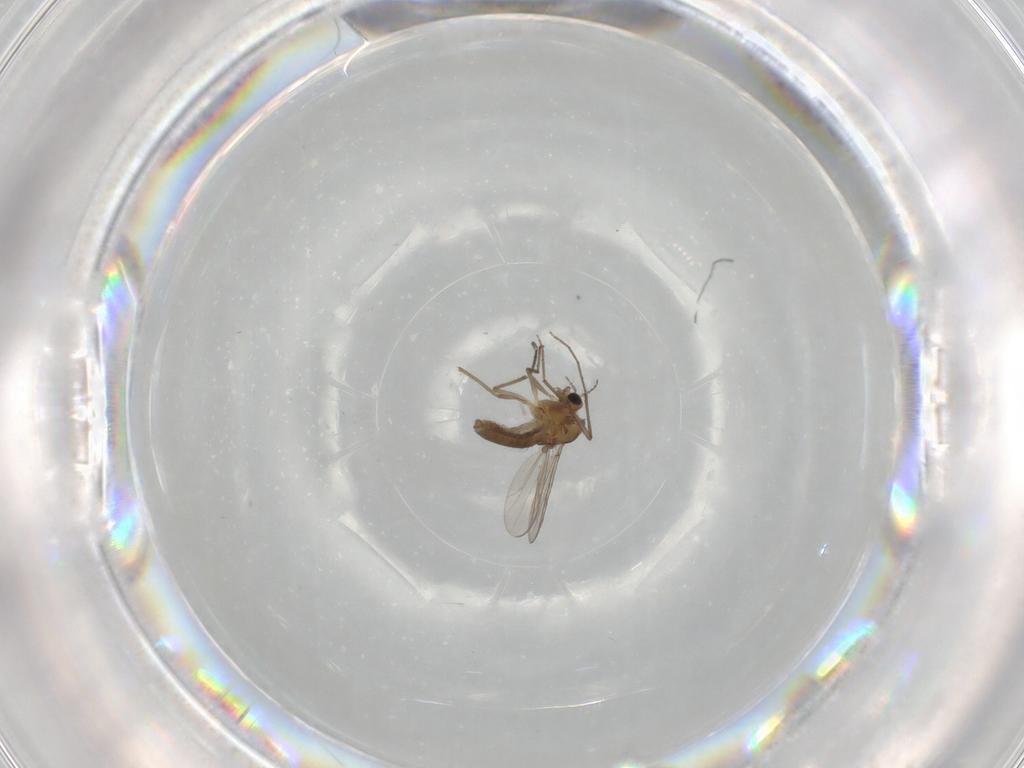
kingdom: Animalia
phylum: Arthropoda
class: Insecta
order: Diptera
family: Chironomidae
